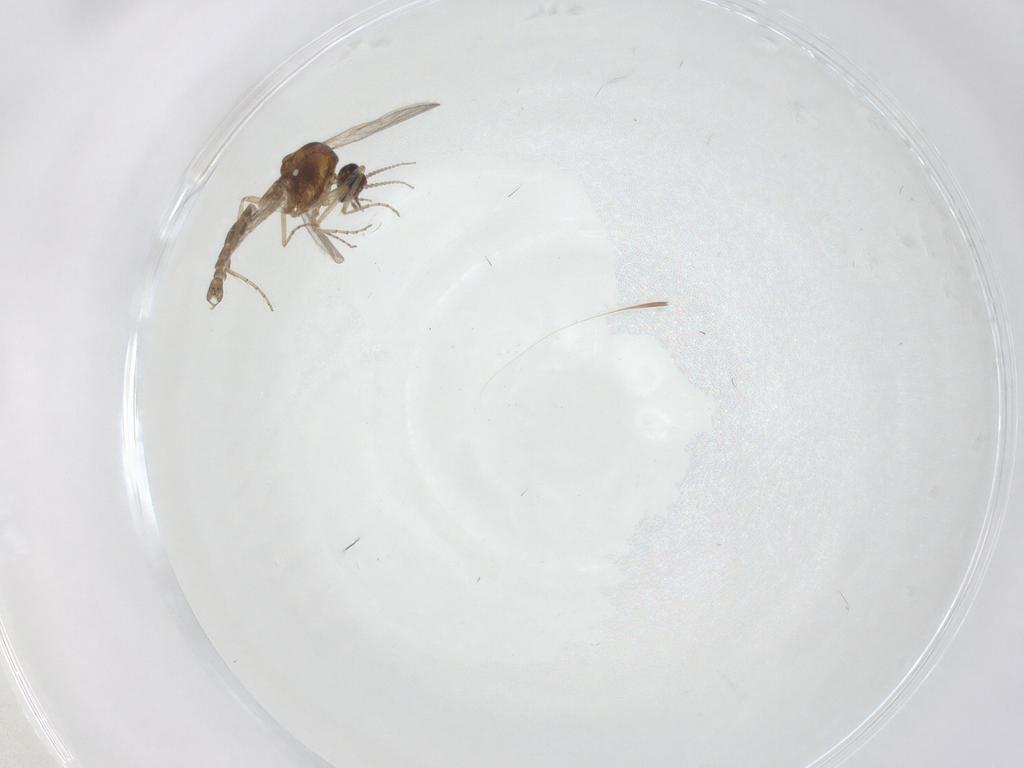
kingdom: Animalia
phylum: Arthropoda
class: Insecta
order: Diptera
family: Ceratopogonidae
